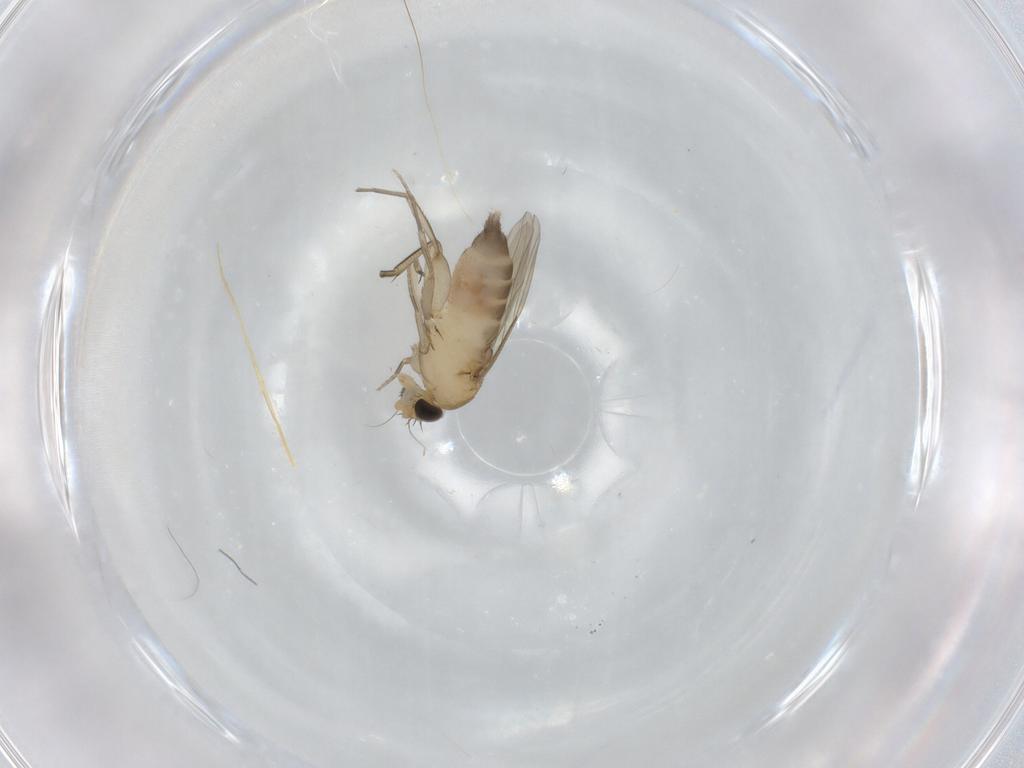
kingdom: Animalia
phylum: Arthropoda
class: Insecta
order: Diptera
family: Phoridae
